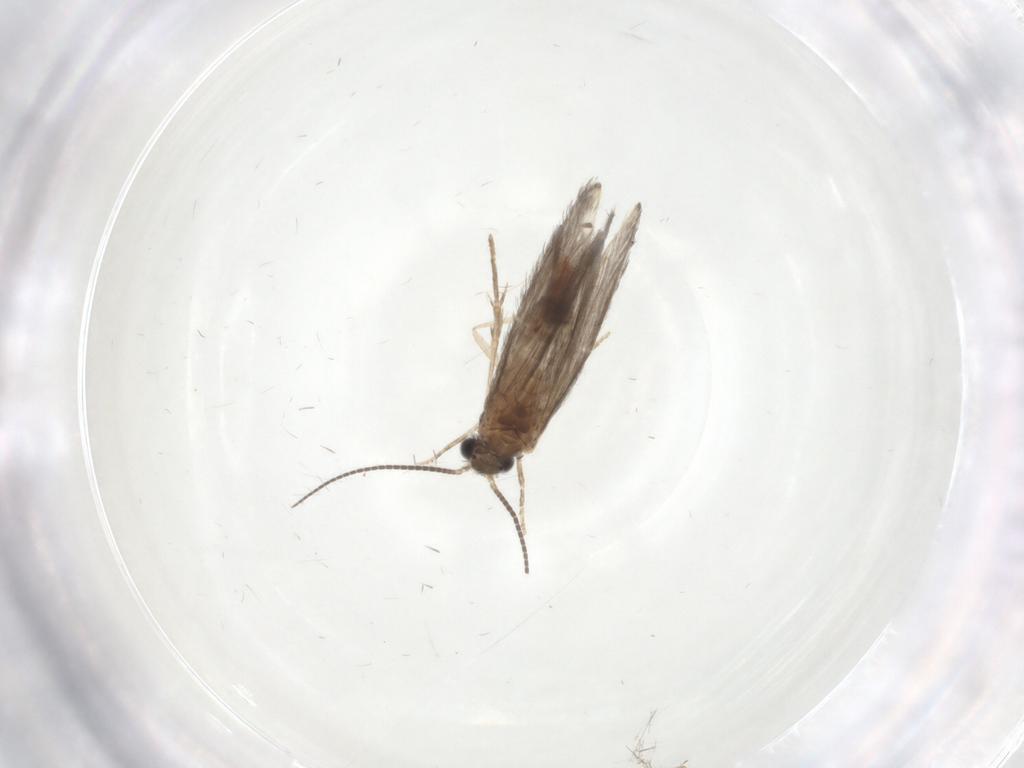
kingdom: Animalia
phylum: Arthropoda
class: Insecta
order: Trichoptera
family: Hydroptilidae
